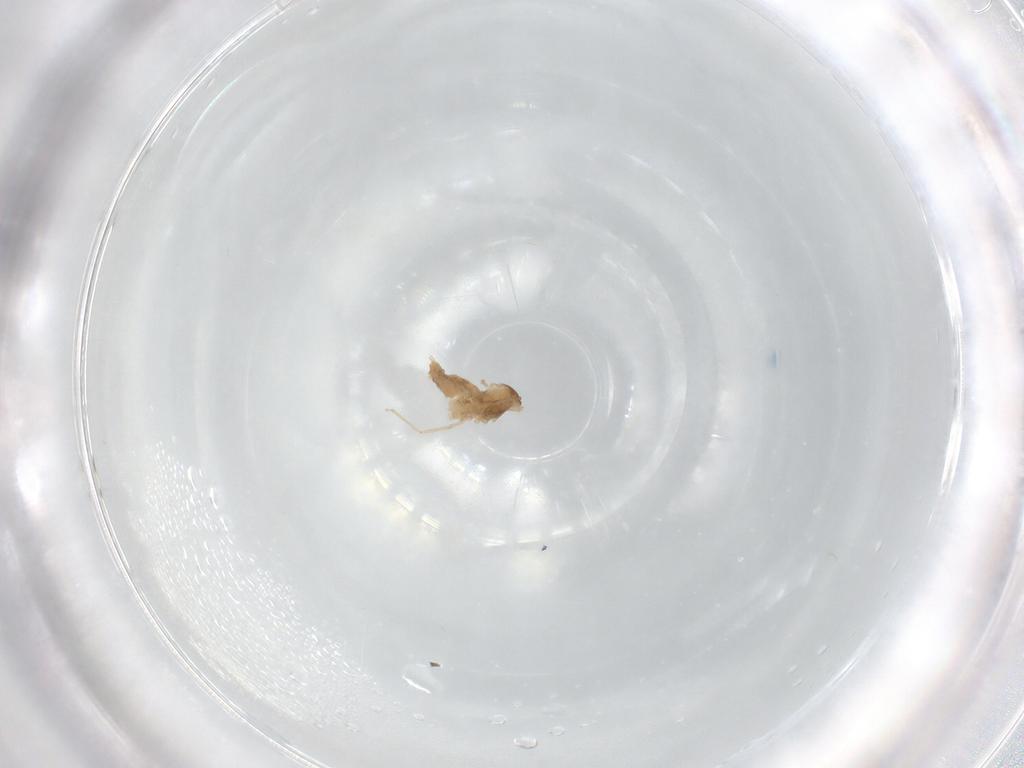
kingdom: Animalia
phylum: Arthropoda
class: Insecta
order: Diptera
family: Cecidomyiidae
